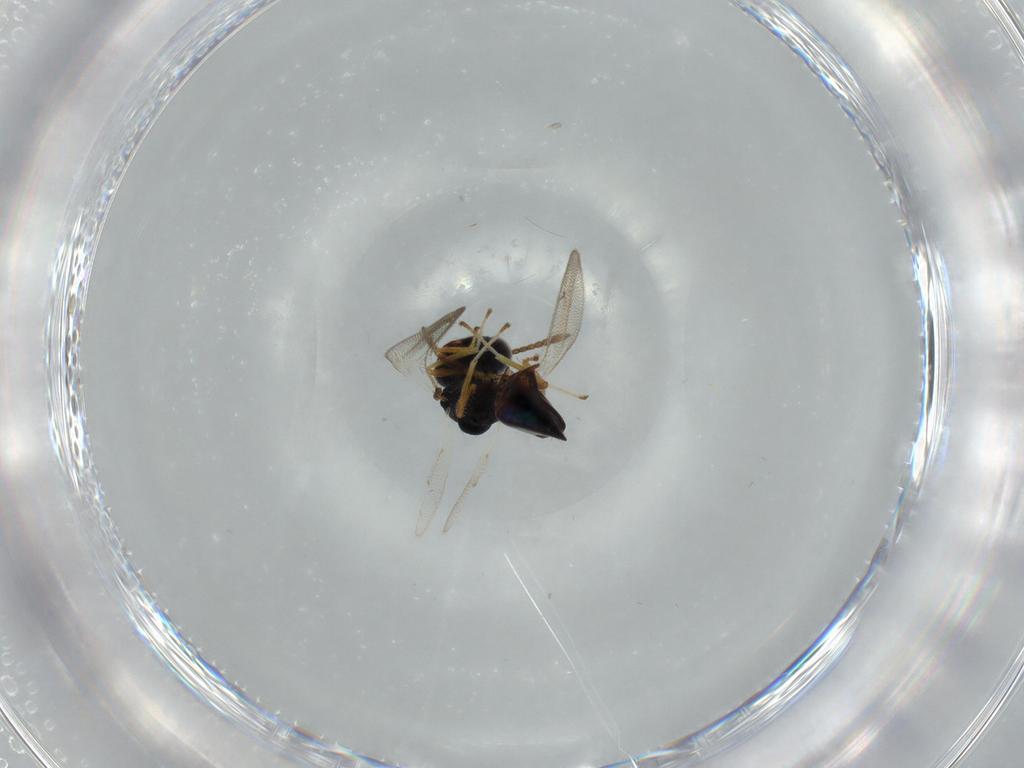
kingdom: Animalia
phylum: Arthropoda
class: Insecta
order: Hymenoptera
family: Pteromalidae
